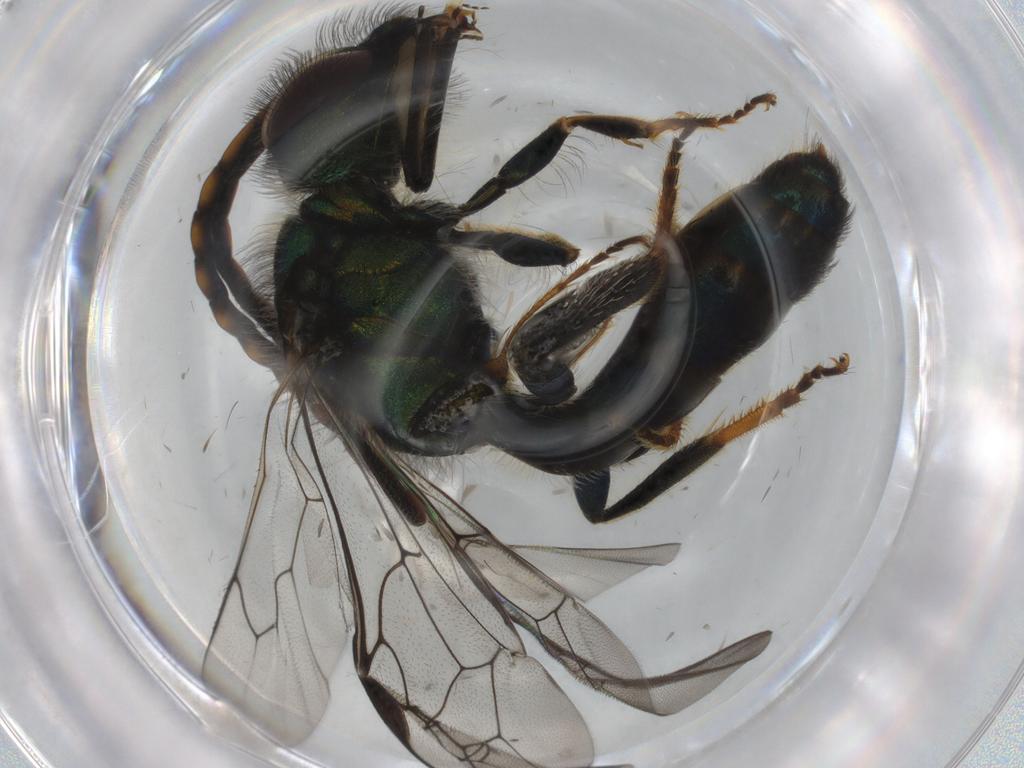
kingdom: Animalia
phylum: Arthropoda
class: Insecta
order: Hymenoptera
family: Halictidae
